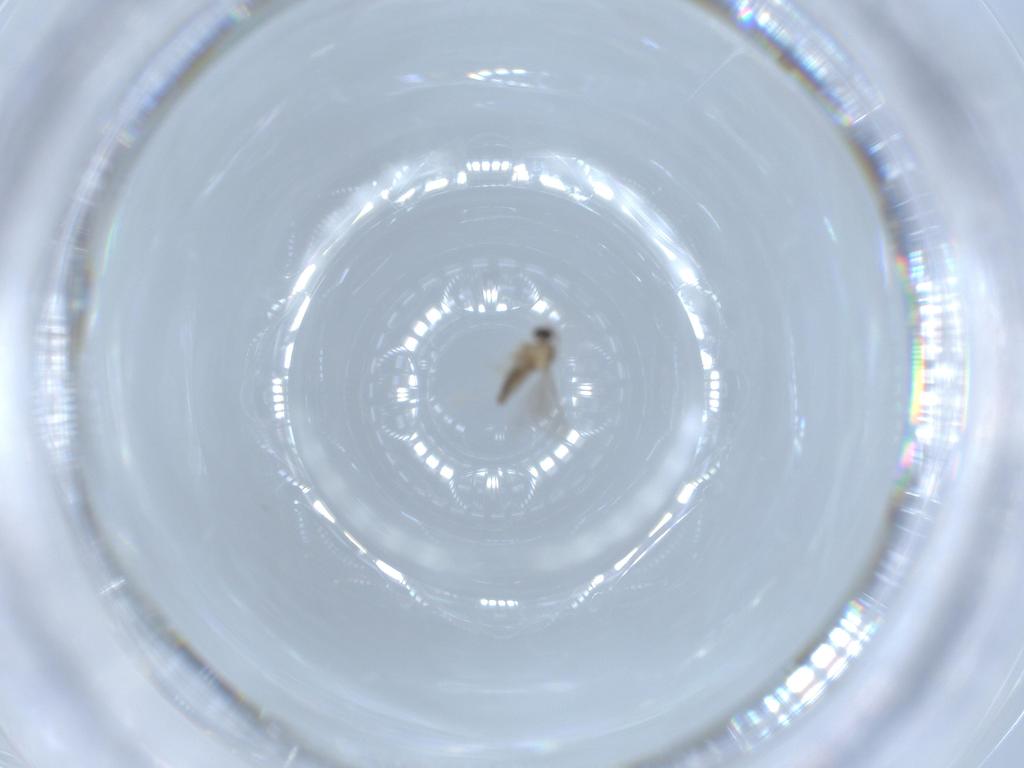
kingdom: Animalia
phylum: Arthropoda
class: Insecta
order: Diptera
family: Cecidomyiidae
